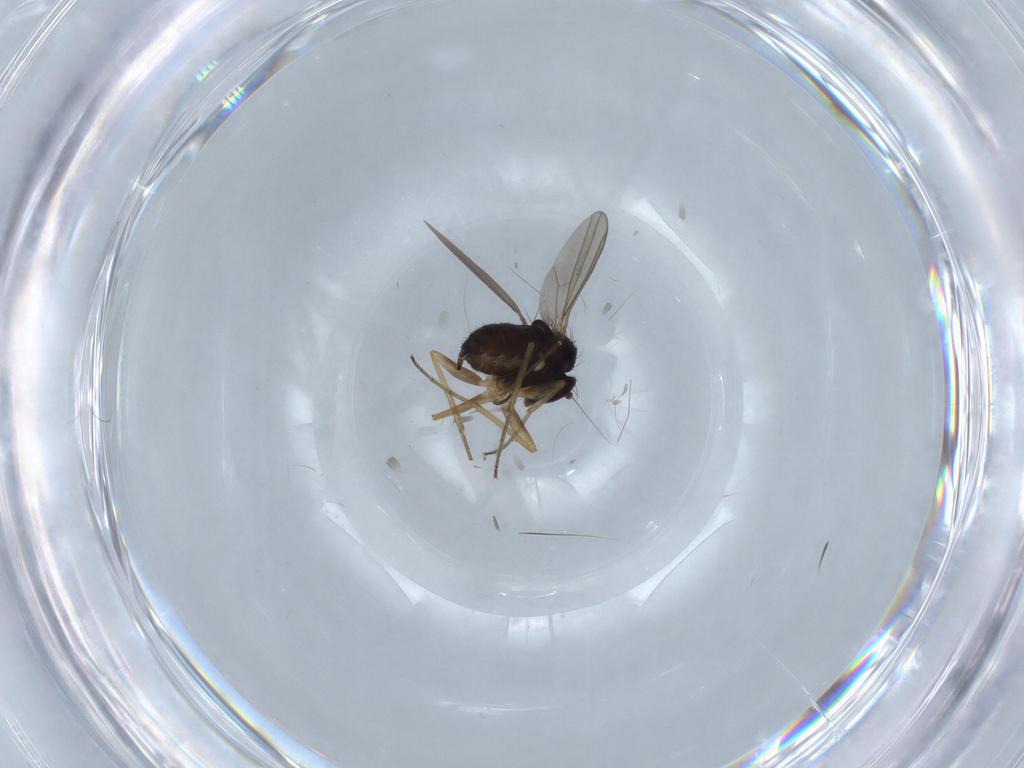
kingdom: Animalia
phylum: Arthropoda
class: Insecta
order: Diptera
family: Dolichopodidae
